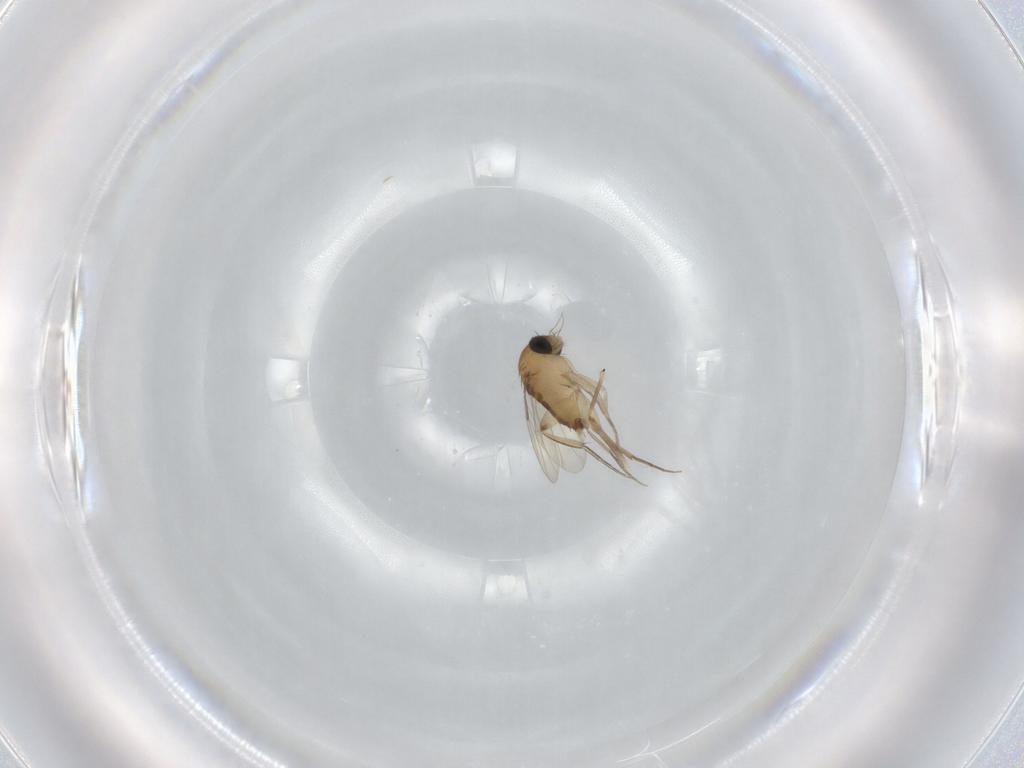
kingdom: Animalia
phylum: Arthropoda
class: Insecta
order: Diptera
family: Phoridae
